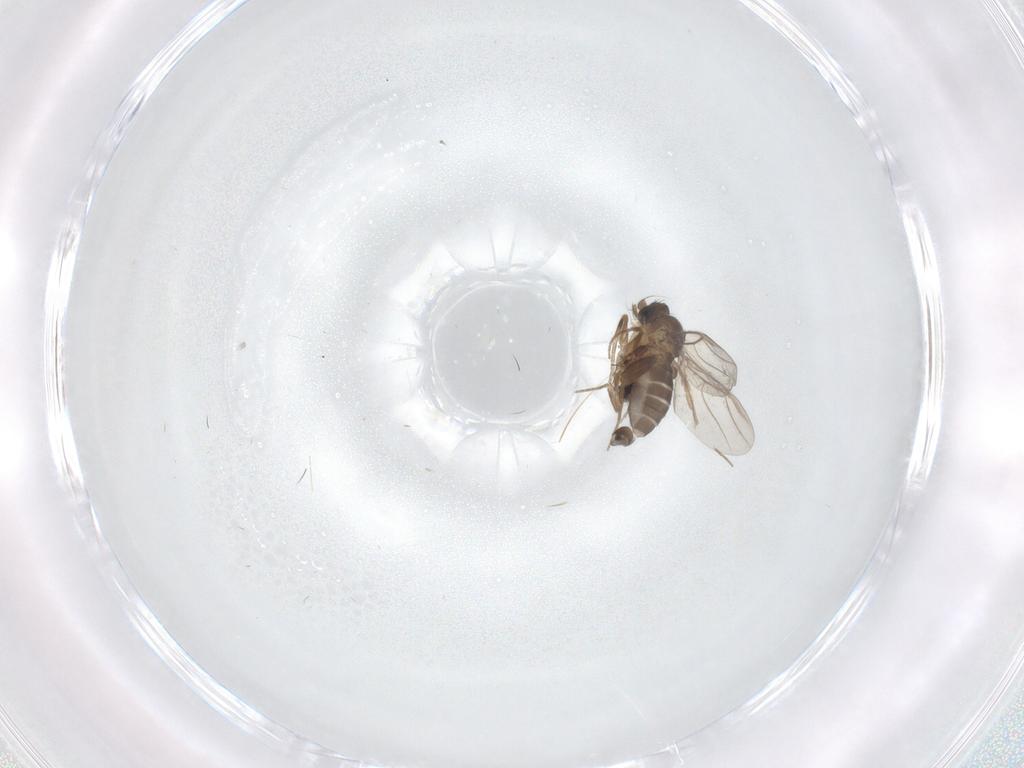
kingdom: Animalia
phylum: Arthropoda
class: Insecta
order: Diptera
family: Phoridae
